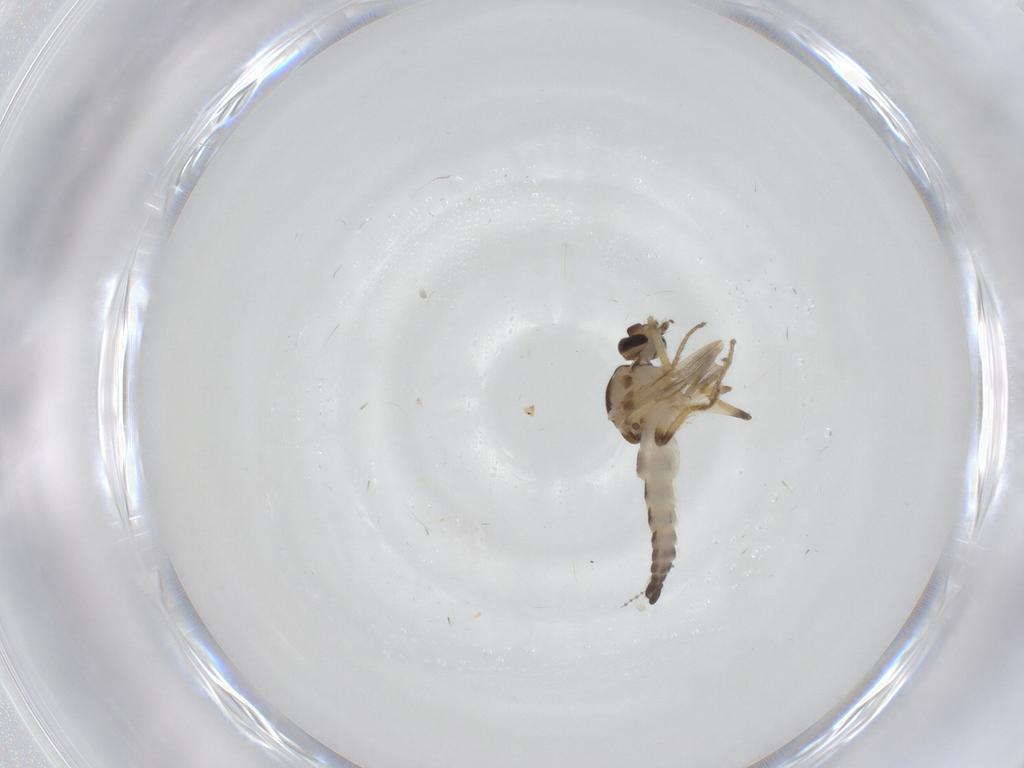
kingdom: Animalia
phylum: Arthropoda
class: Insecta
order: Diptera
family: Ceratopogonidae
